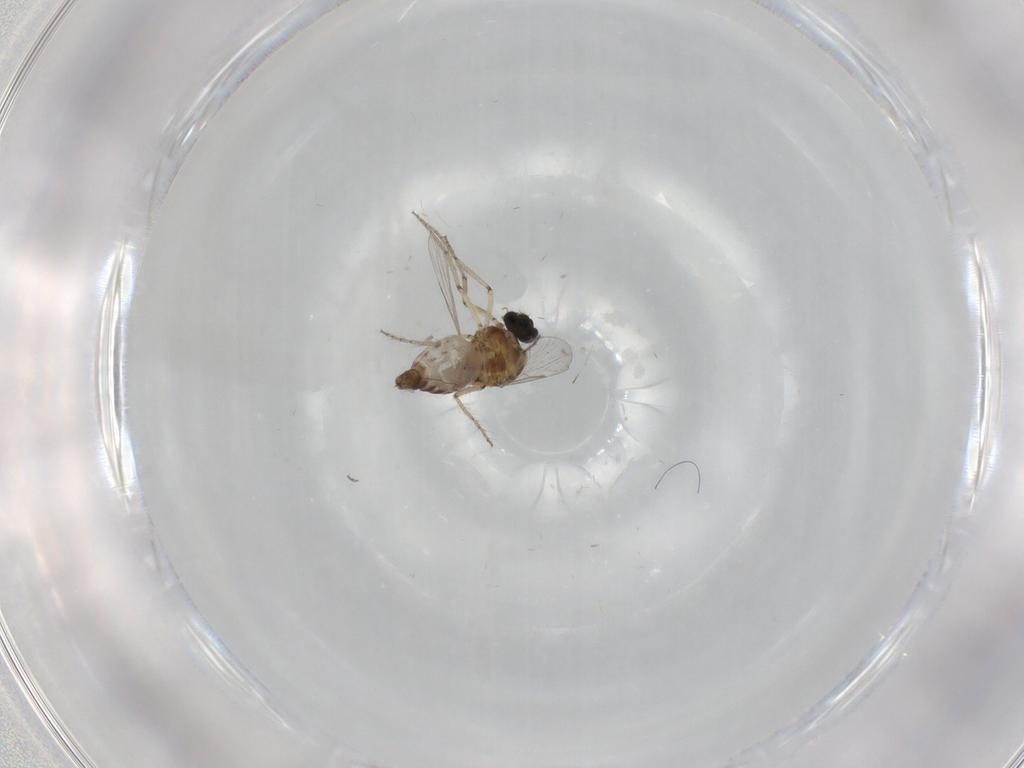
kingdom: Animalia
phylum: Arthropoda
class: Insecta
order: Diptera
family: Ceratopogonidae
